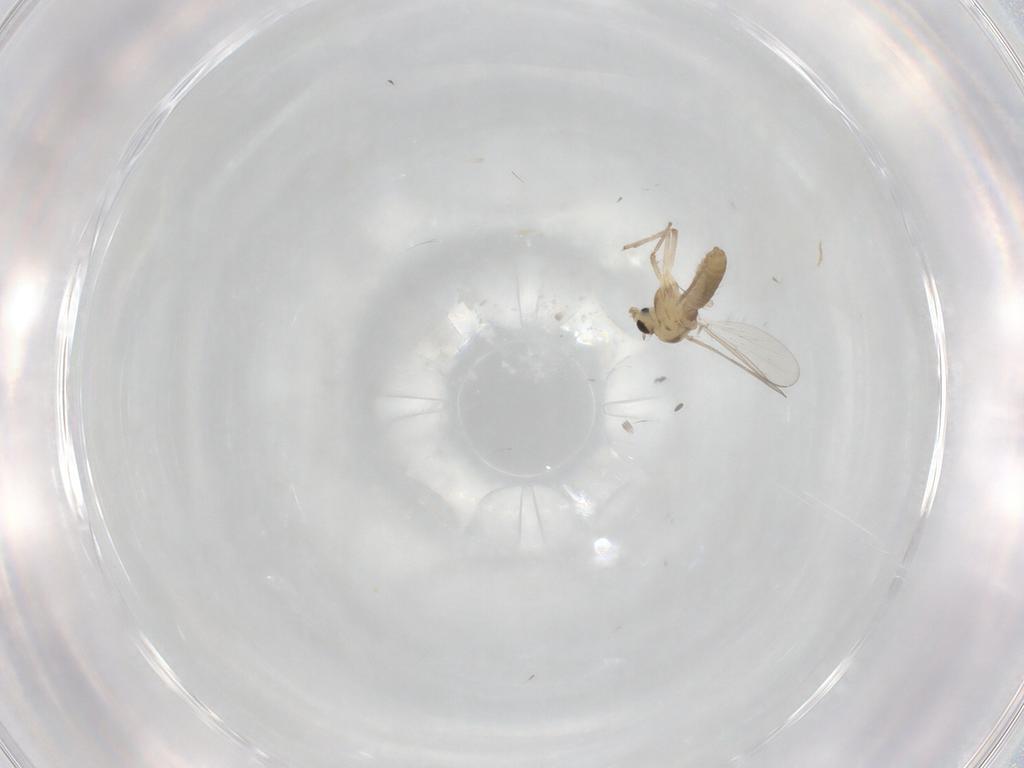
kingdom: Animalia
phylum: Arthropoda
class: Insecta
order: Diptera
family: Chironomidae
